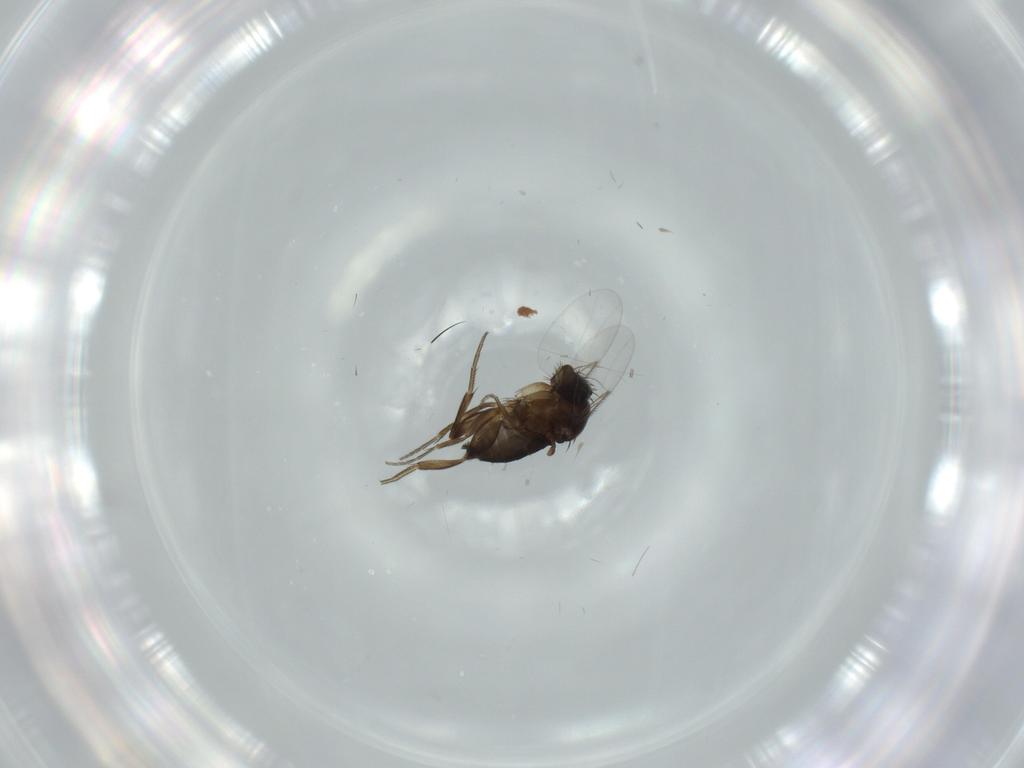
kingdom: Animalia
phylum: Arthropoda
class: Insecta
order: Diptera
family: Phoridae
